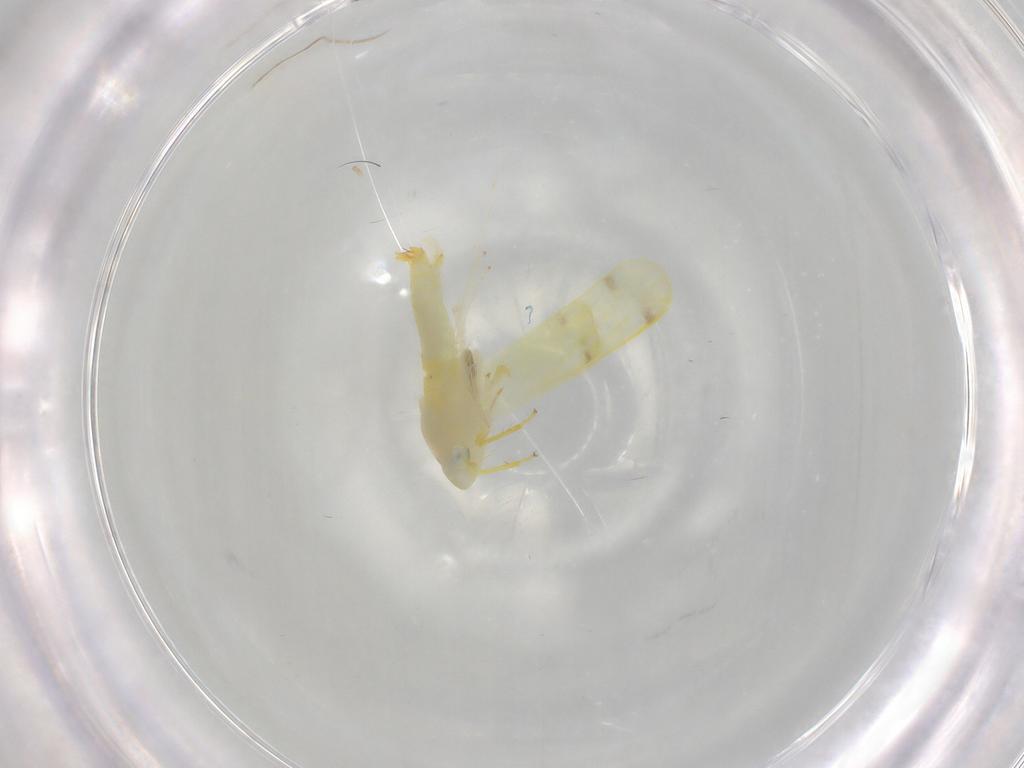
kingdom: Animalia
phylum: Arthropoda
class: Insecta
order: Hemiptera
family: Cicadellidae
